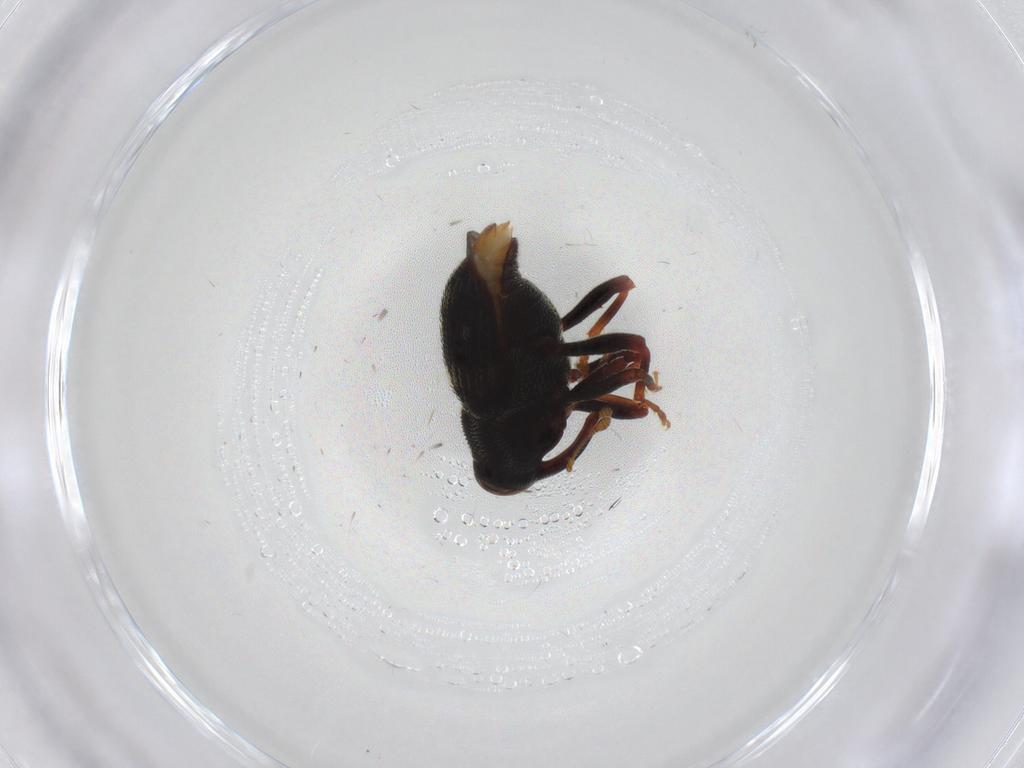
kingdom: Animalia
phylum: Arthropoda
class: Insecta
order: Coleoptera
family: Curculionidae
